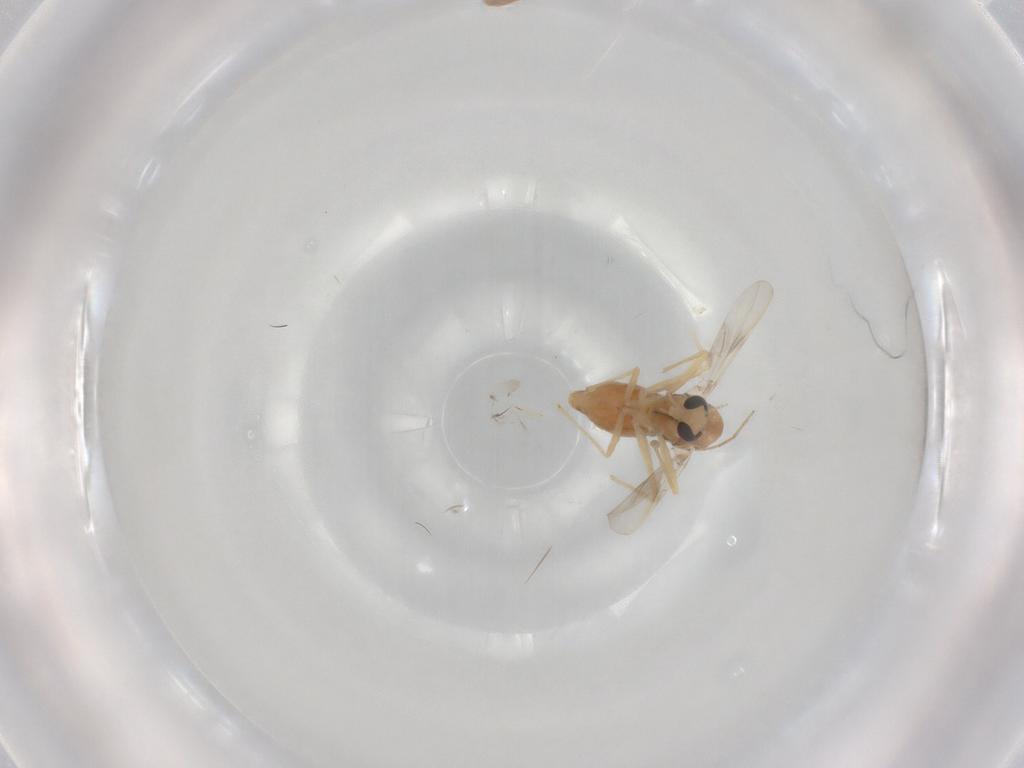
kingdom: Animalia
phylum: Arthropoda
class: Insecta
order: Diptera
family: Chironomidae
